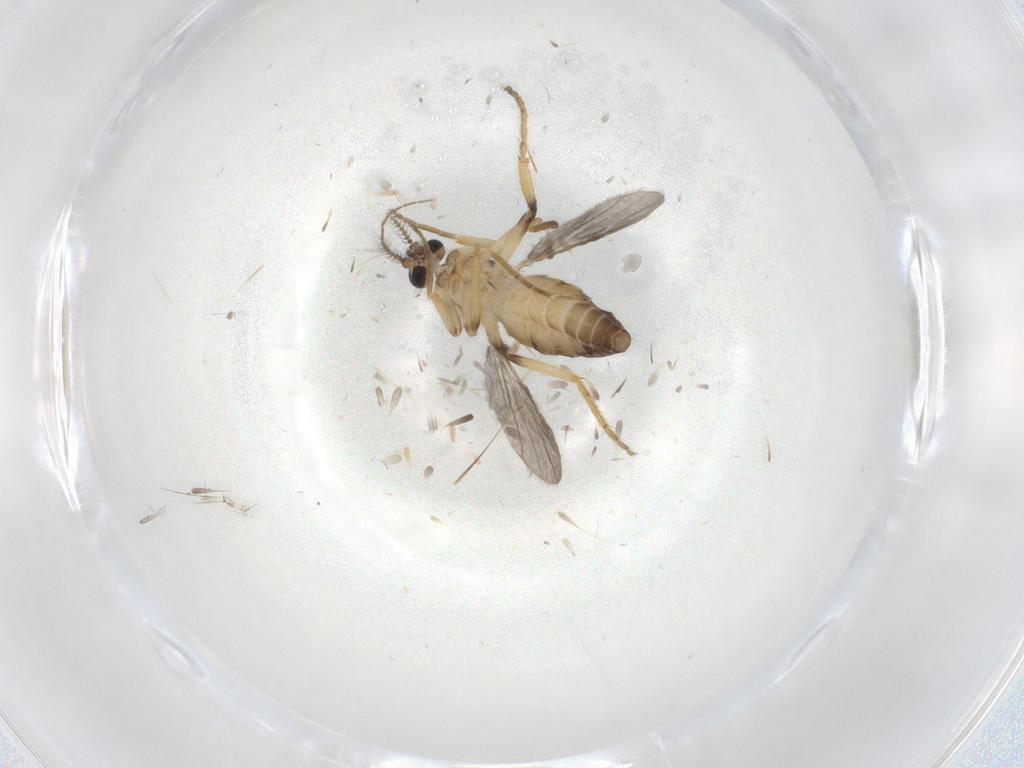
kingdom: Animalia
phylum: Arthropoda
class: Insecta
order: Diptera
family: Ceratopogonidae
